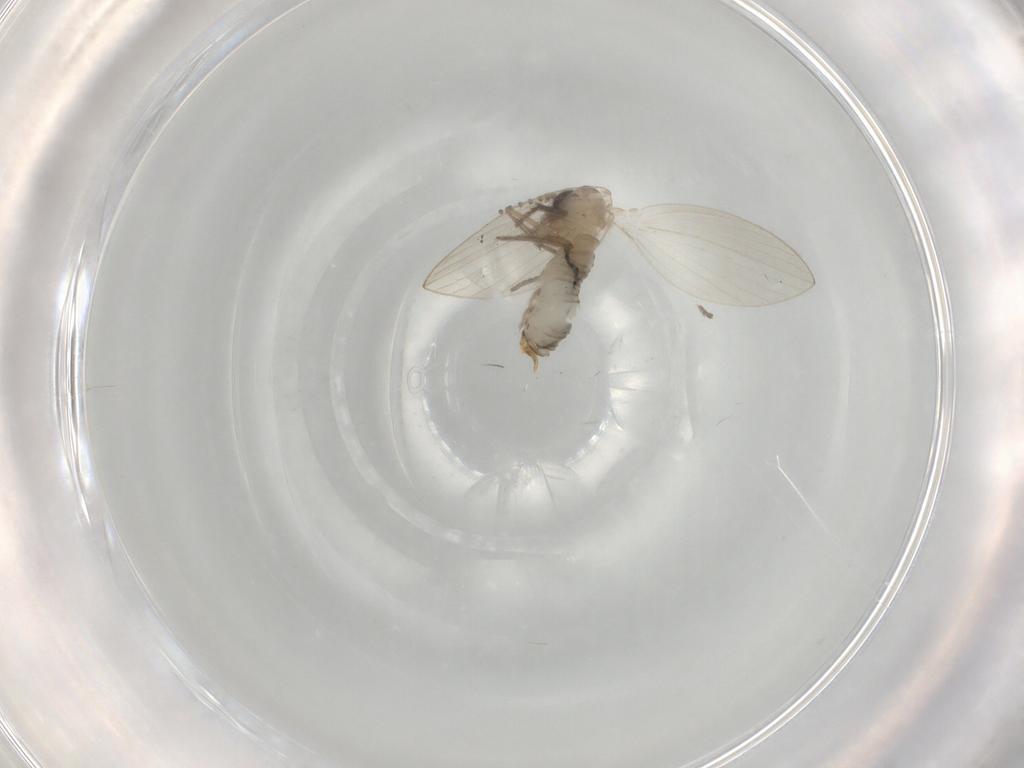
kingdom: Animalia
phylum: Arthropoda
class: Insecta
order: Diptera
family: Psychodidae
